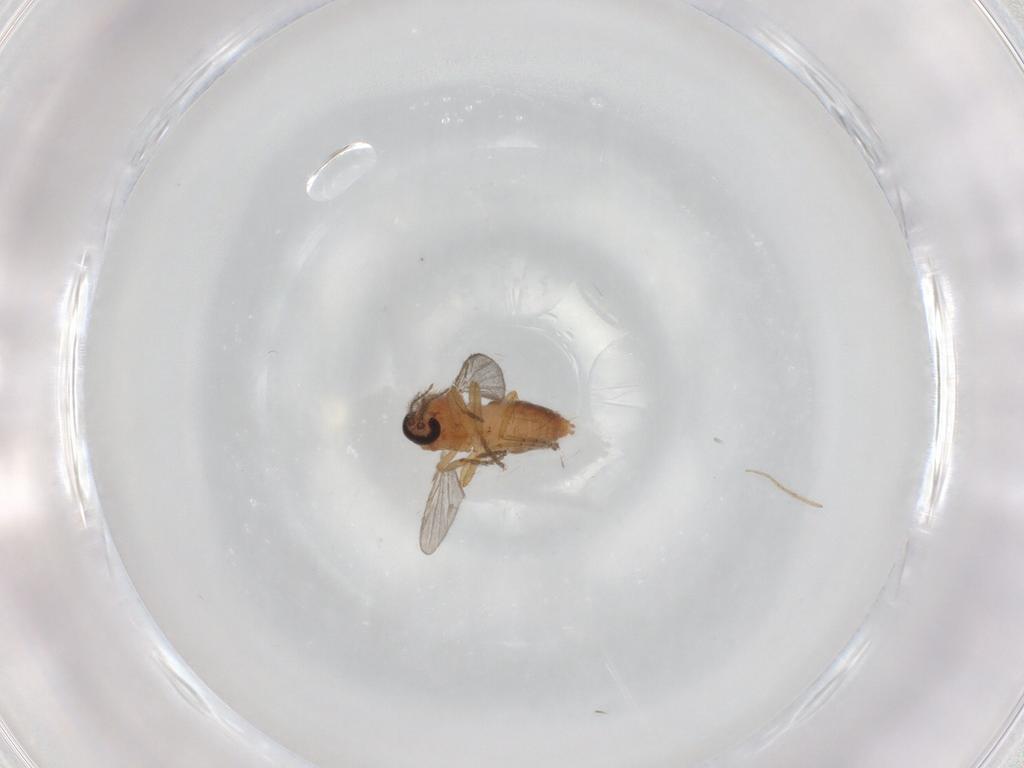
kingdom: Animalia
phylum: Arthropoda
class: Insecta
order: Diptera
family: Ceratopogonidae
